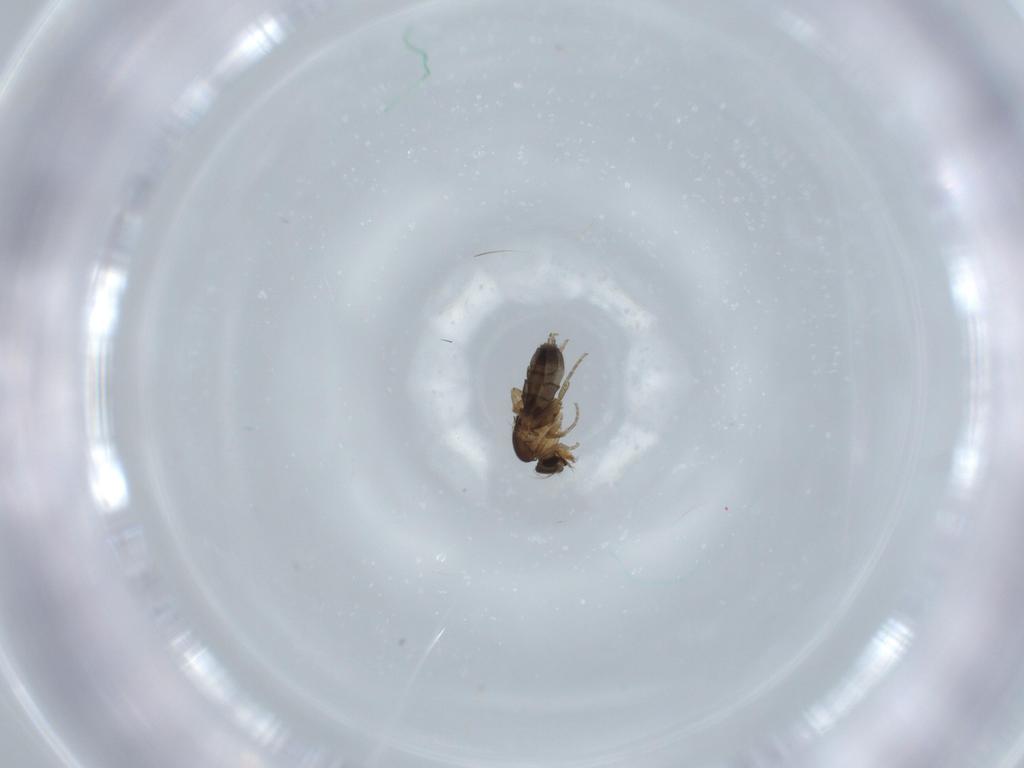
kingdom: Animalia
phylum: Arthropoda
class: Insecta
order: Diptera
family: Phoridae
